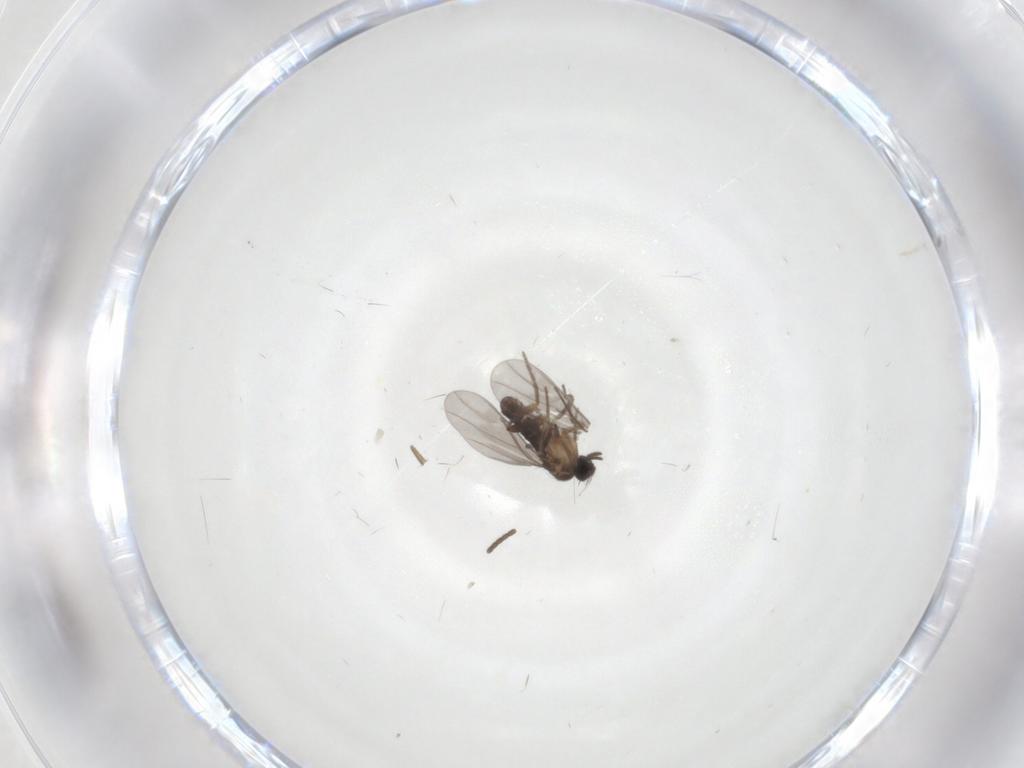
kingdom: Animalia
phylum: Arthropoda
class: Insecta
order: Diptera
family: Sciaridae
